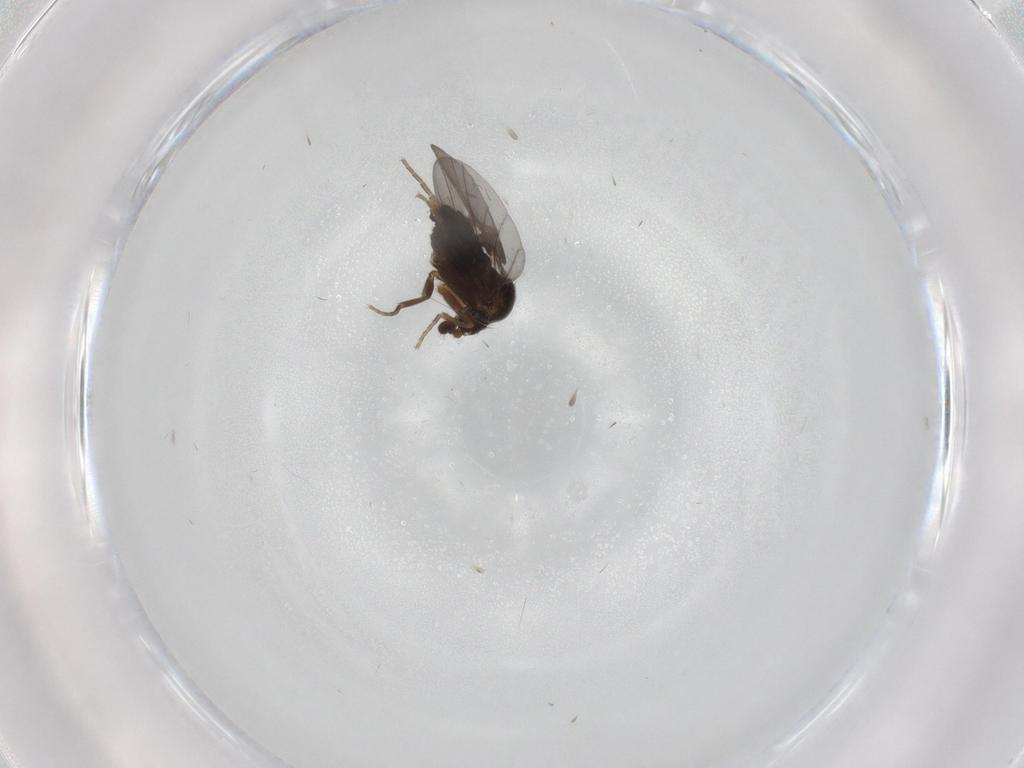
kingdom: Animalia
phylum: Arthropoda
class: Insecta
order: Diptera
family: Phoridae
